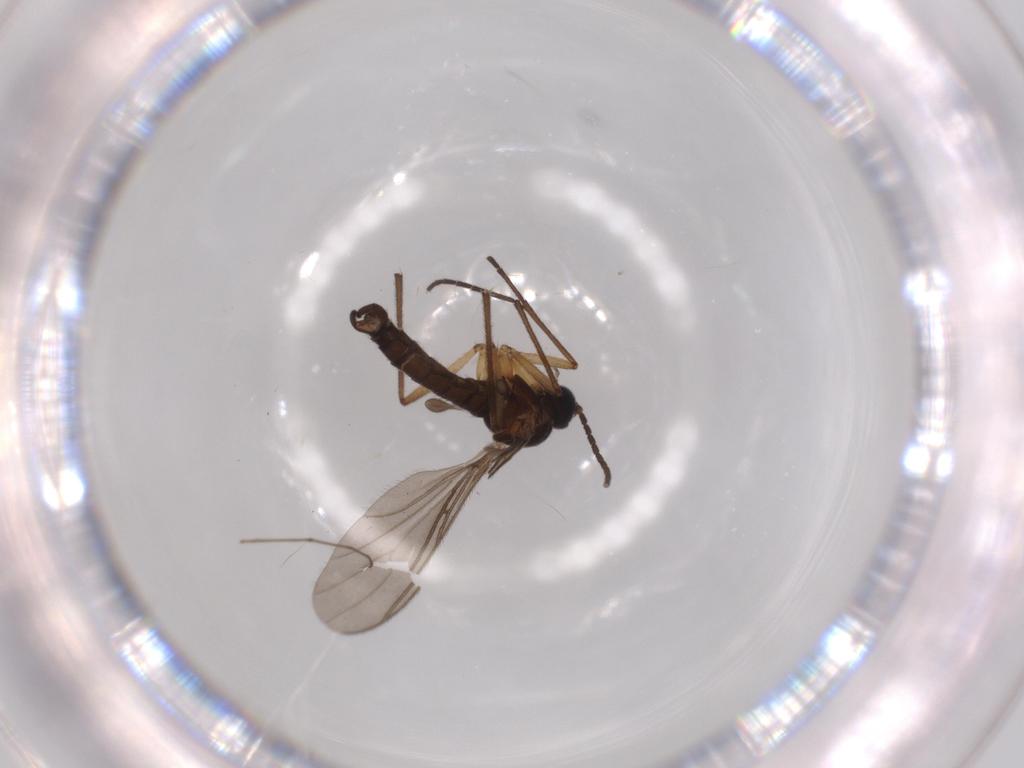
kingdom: Animalia
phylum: Arthropoda
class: Insecta
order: Diptera
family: Sciaridae
